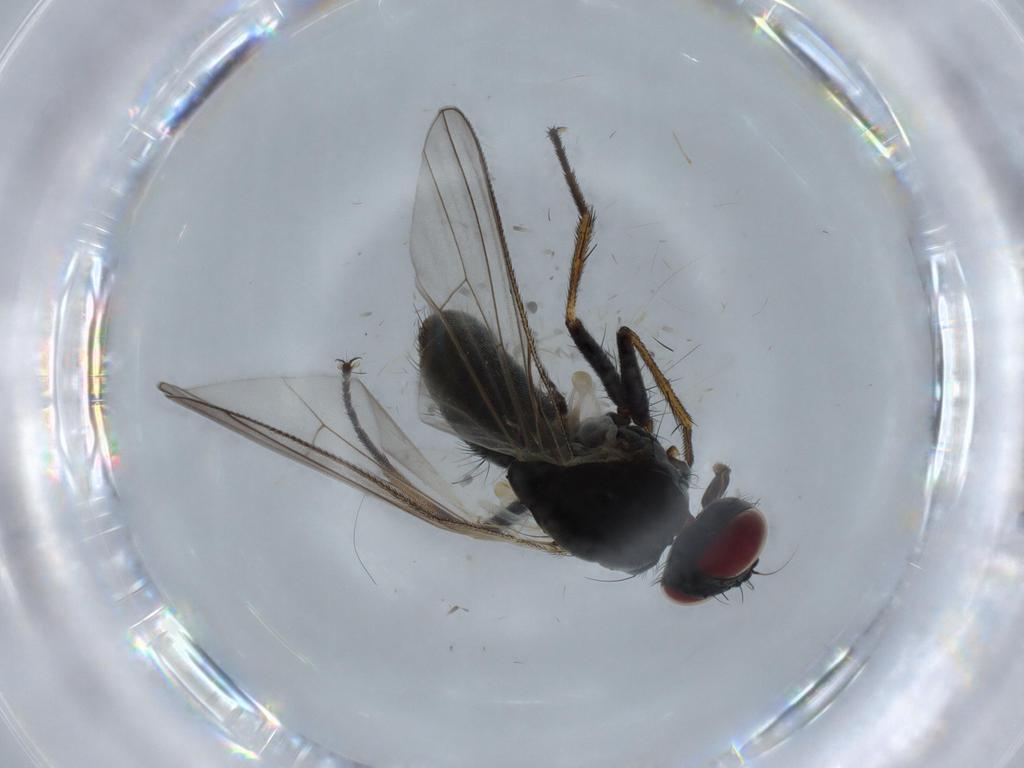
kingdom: Animalia
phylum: Arthropoda
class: Insecta
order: Diptera
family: Muscidae
